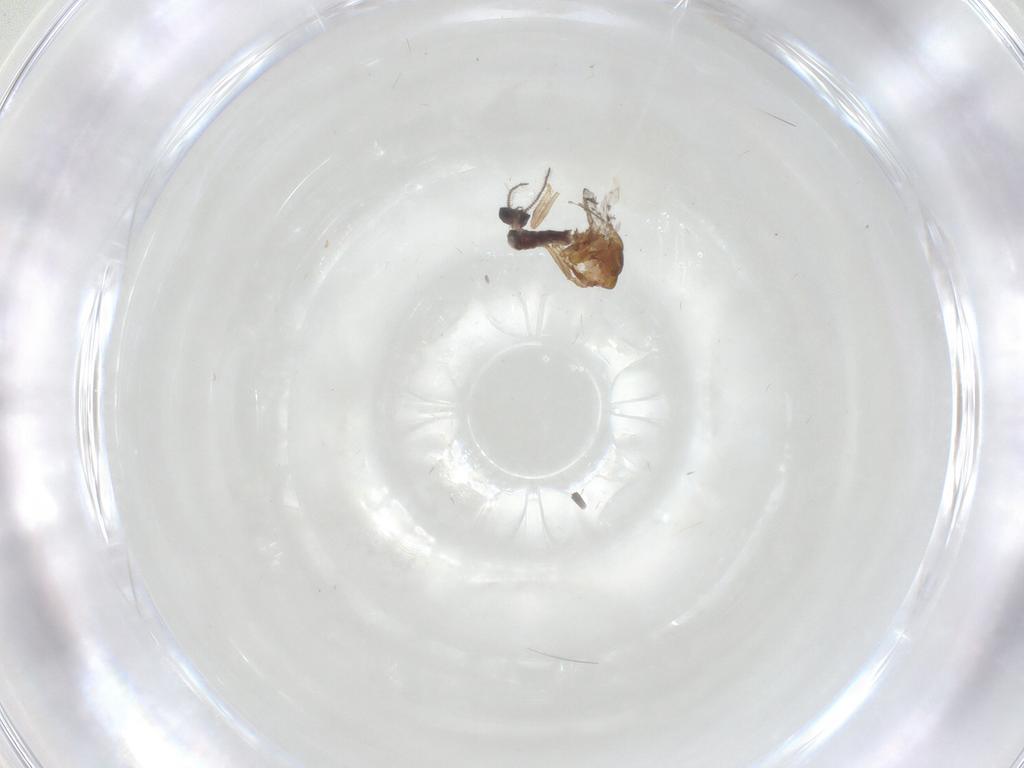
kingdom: Animalia
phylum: Arthropoda
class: Insecta
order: Diptera
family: Ceratopogonidae
